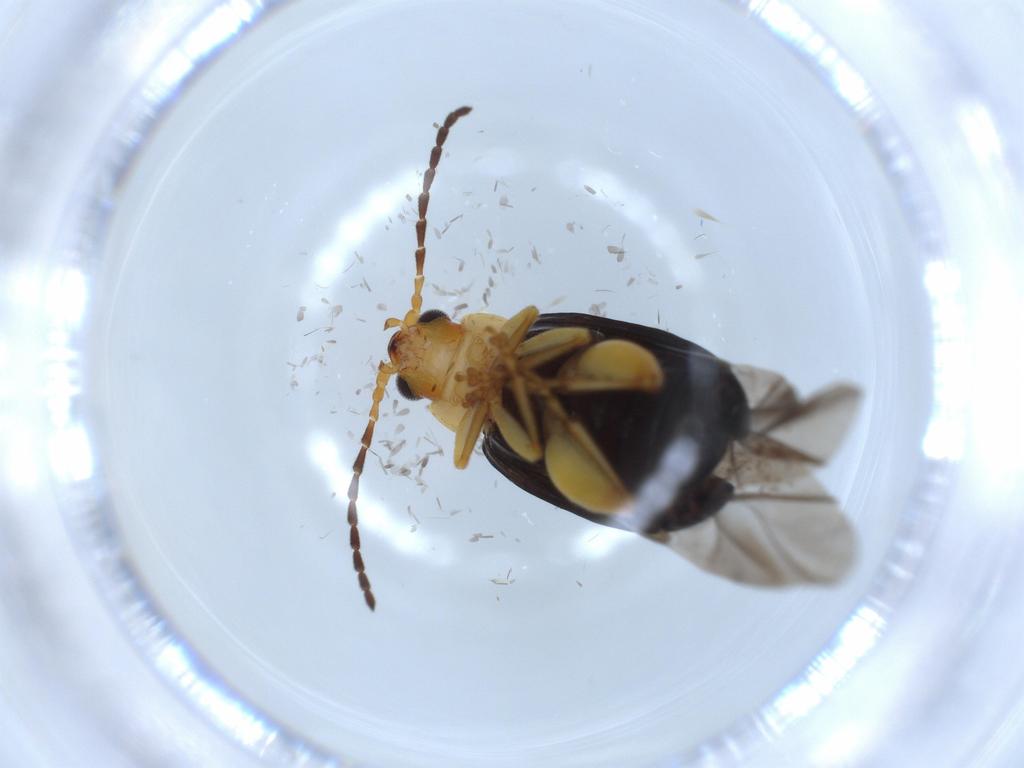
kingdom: Animalia
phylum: Arthropoda
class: Insecta
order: Coleoptera
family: Chrysomelidae
